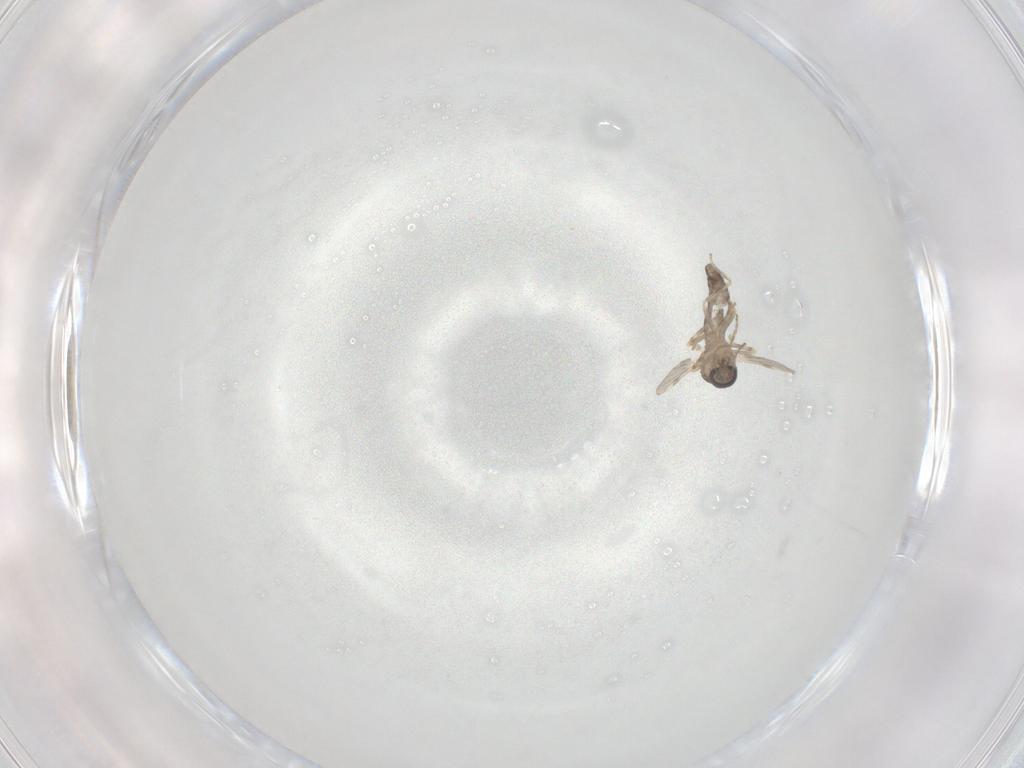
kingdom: Animalia
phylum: Arthropoda
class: Insecta
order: Diptera
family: Ceratopogonidae
